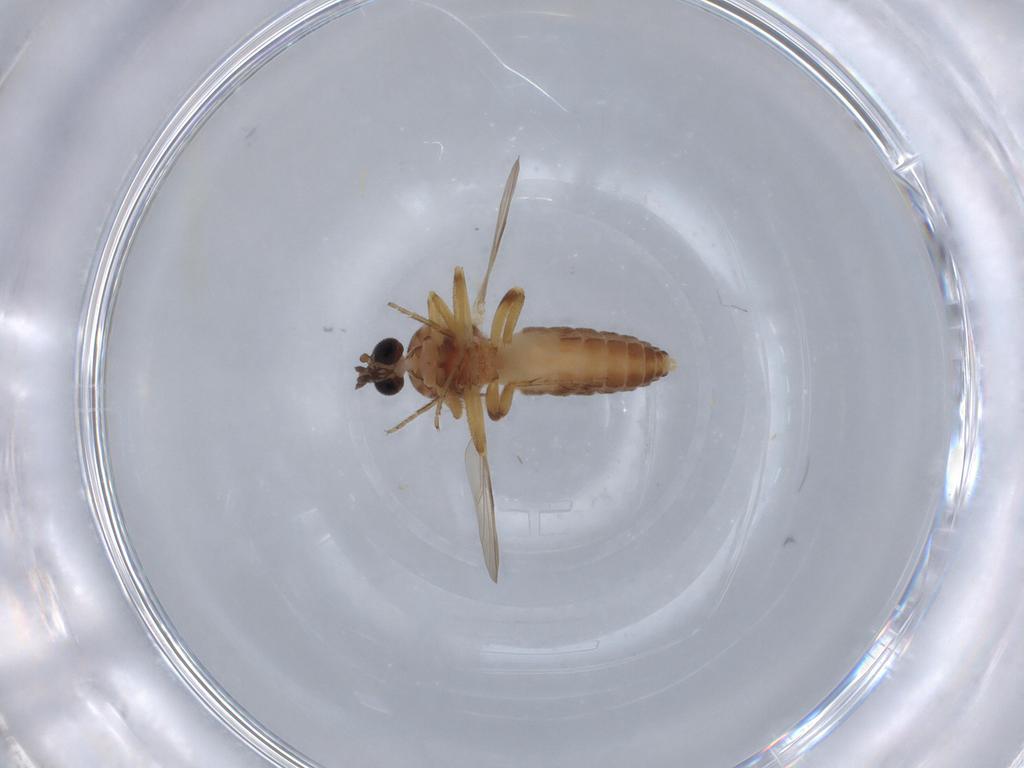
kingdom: Animalia
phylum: Arthropoda
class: Insecta
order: Diptera
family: Ceratopogonidae
